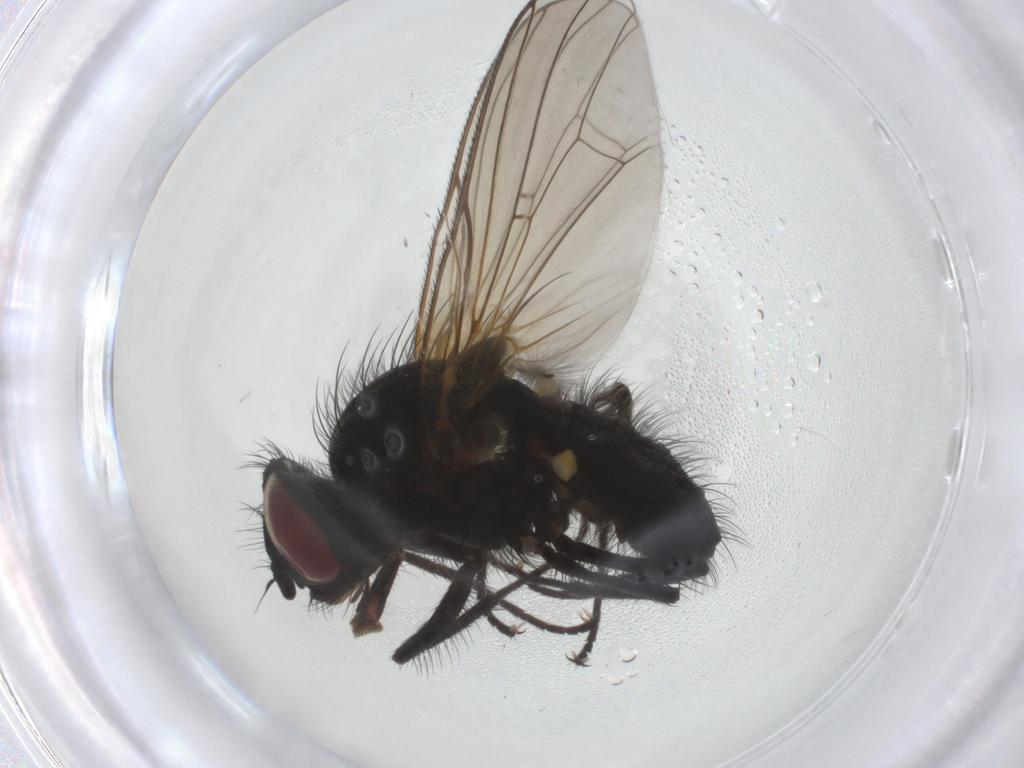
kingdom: Animalia
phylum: Arthropoda
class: Insecta
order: Diptera
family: Anthomyiidae
